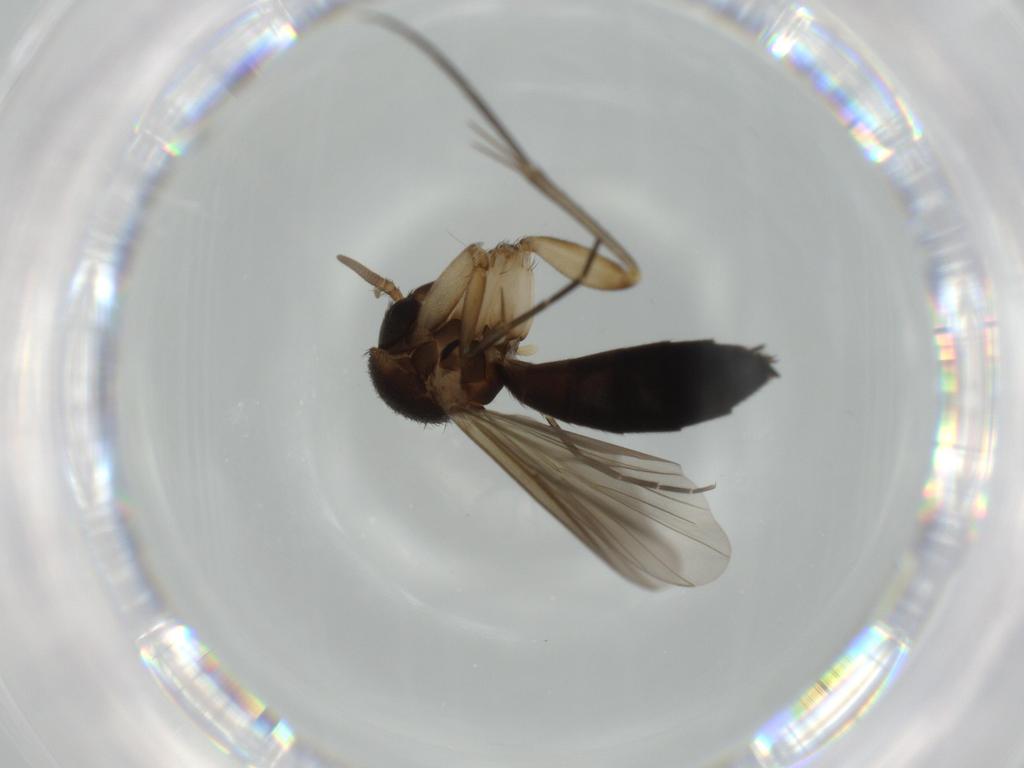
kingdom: Animalia
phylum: Arthropoda
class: Insecta
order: Diptera
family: Mycetophilidae
